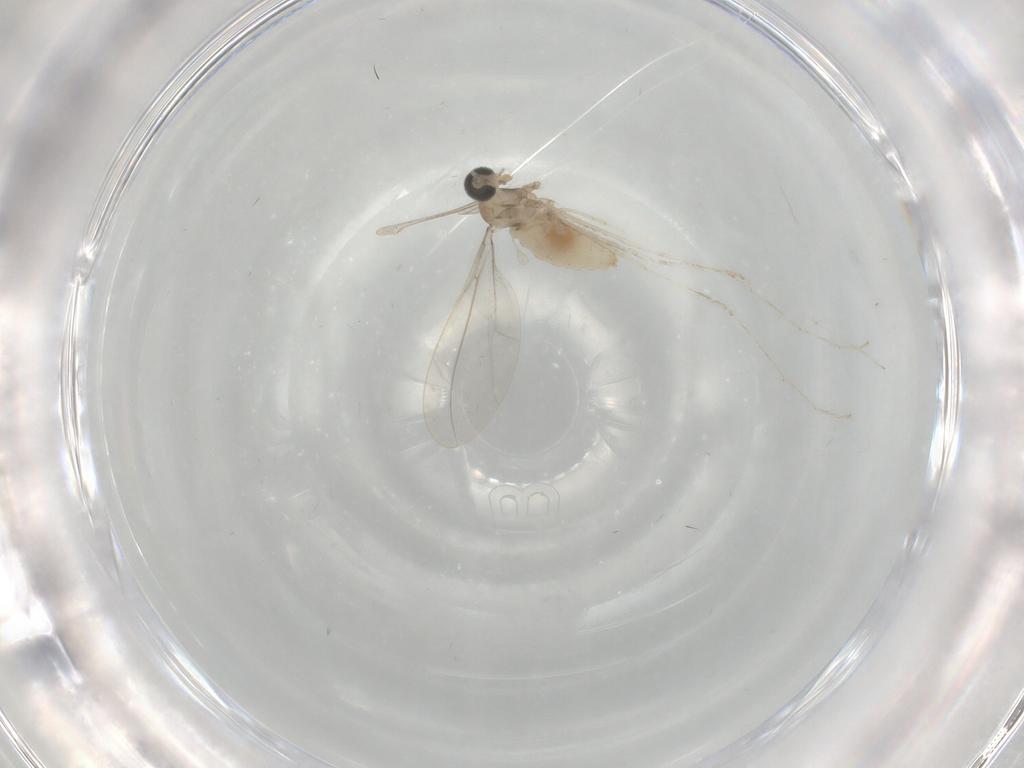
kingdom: Animalia
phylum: Arthropoda
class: Insecta
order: Diptera
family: Cecidomyiidae
